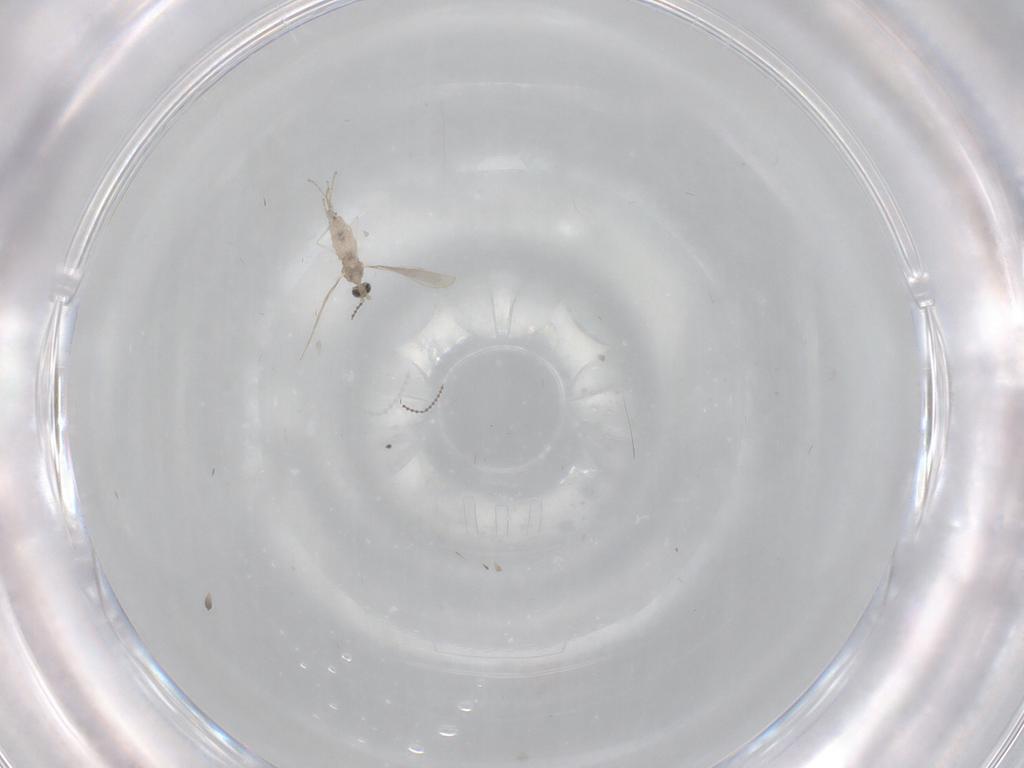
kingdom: Animalia
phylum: Arthropoda
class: Insecta
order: Diptera
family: Cecidomyiidae
